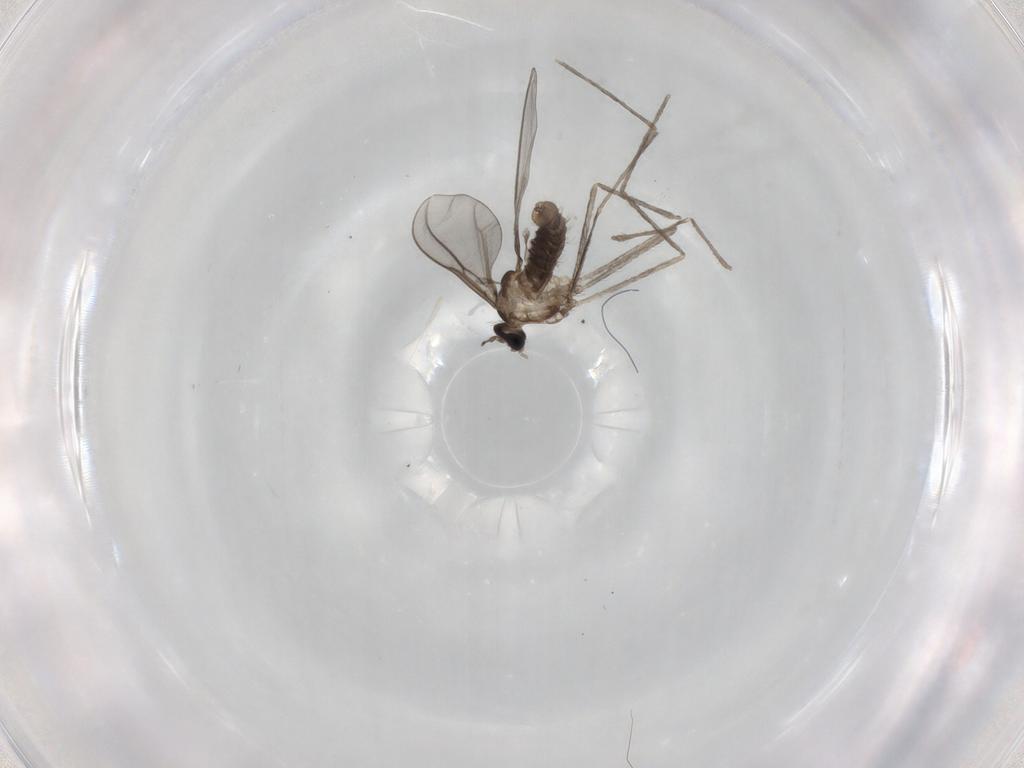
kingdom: Animalia
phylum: Arthropoda
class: Insecta
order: Diptera
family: Cecidomyiidae
